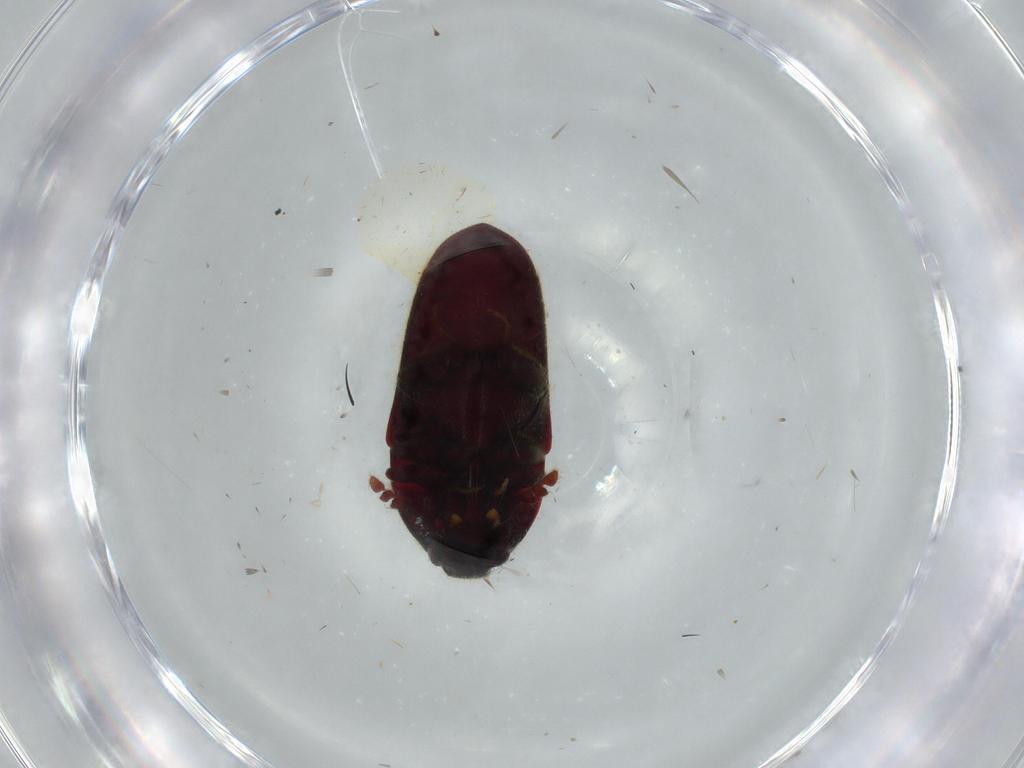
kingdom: Animalia
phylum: Arthropoda
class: Insecta
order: Coleoptera
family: Throscidae
